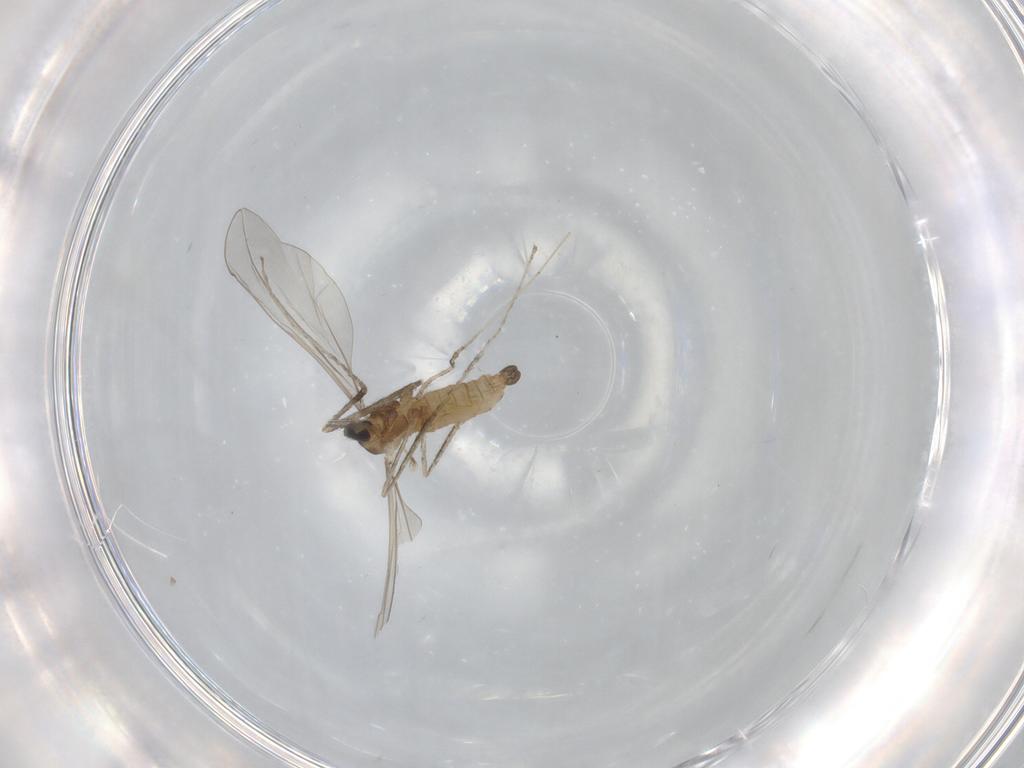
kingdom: Animalia
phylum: Arthropoda
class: Insecta
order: Diptera
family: Cecidomyiidae
